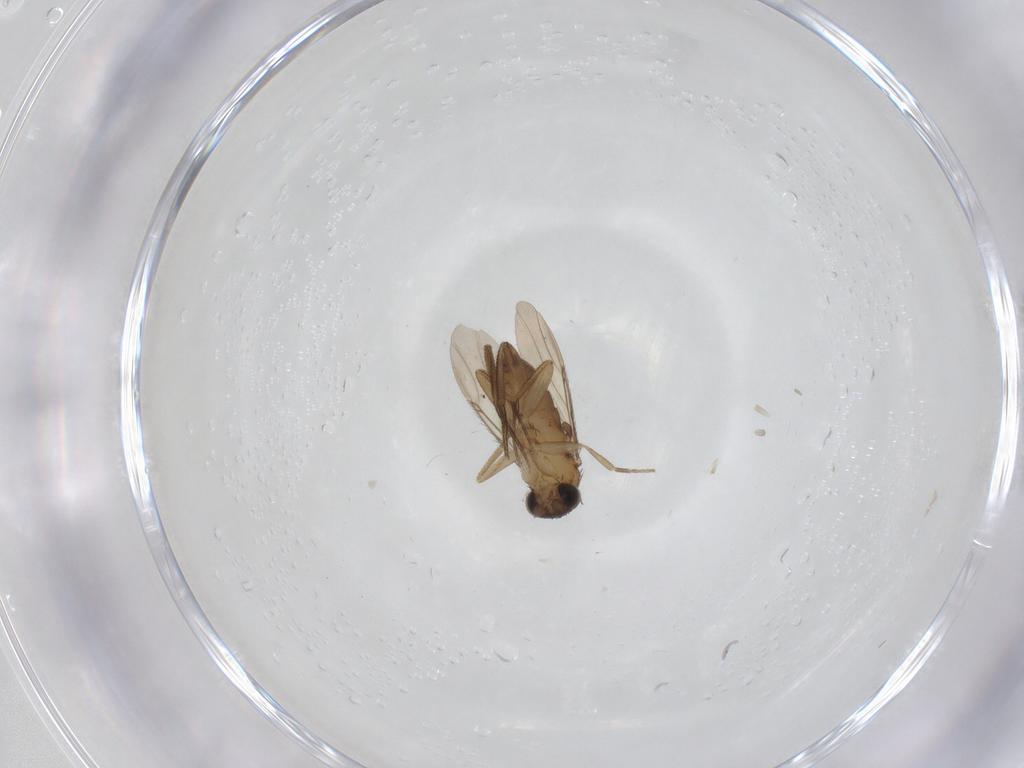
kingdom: Animalia
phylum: Arthropoda
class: Insecta
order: Diptera
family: Phoridae
